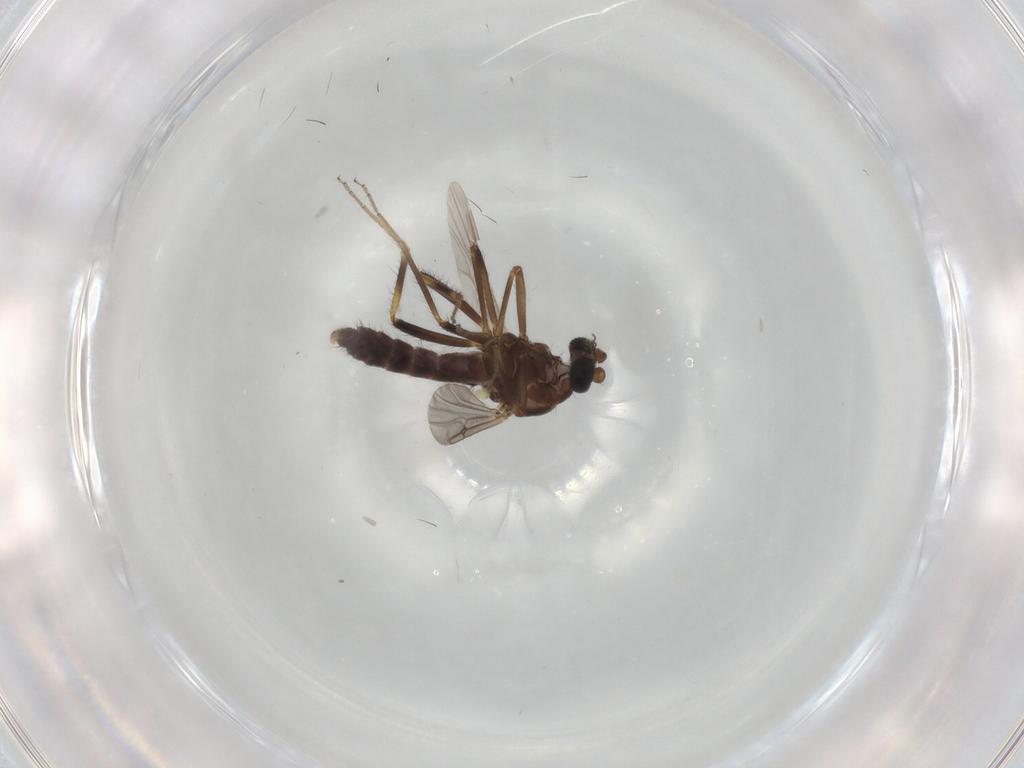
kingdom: Animalia
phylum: Arthropoda
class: Insecta
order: Diptera
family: Phoridae
